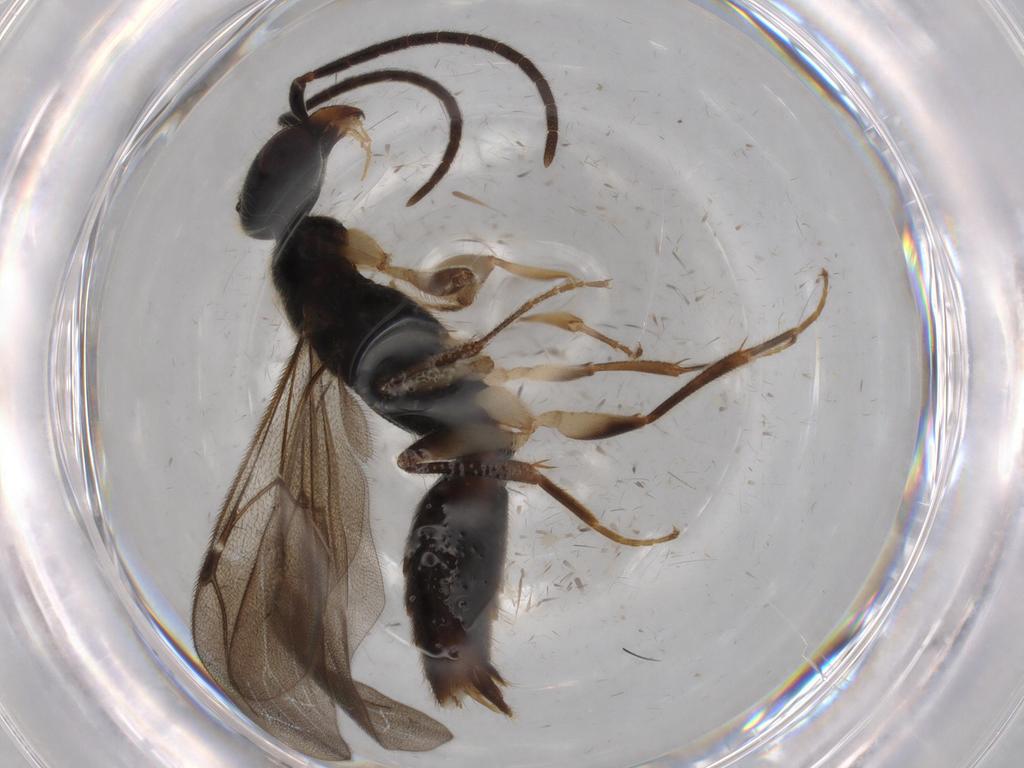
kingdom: Animalia
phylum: Arthropoda
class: Insecta
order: Hymenoptera
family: Bethylidae
